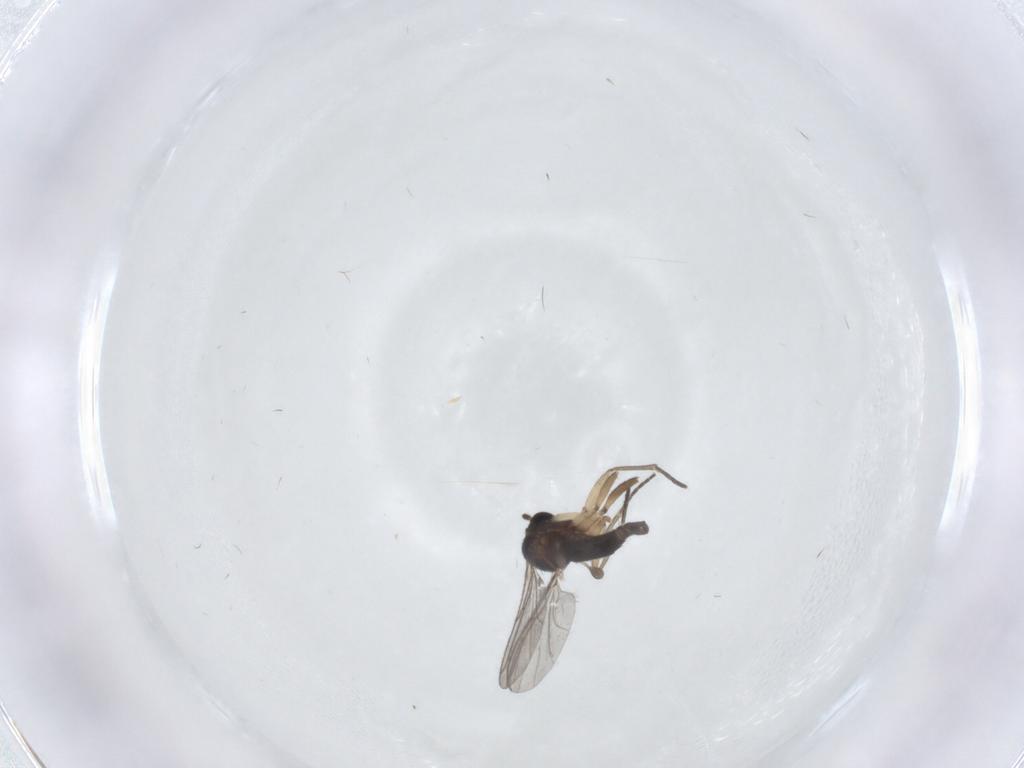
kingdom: Animalia
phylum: Arthropoda
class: Insecta
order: Diptera
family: Sciaridae
